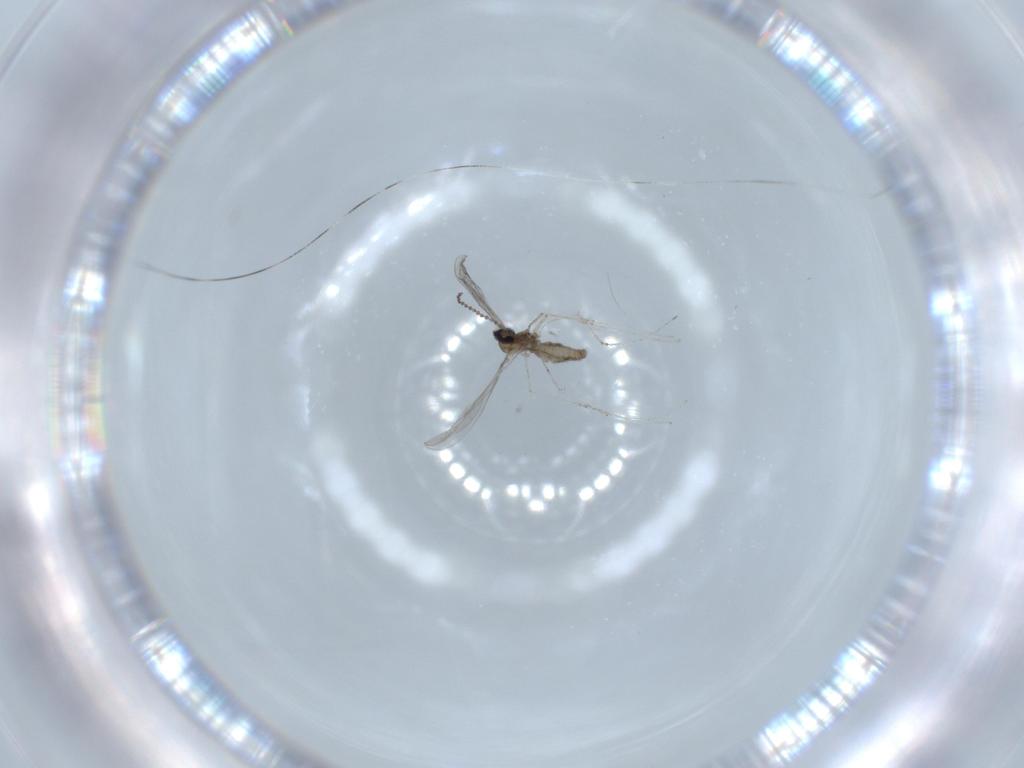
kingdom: Animalia
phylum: Arthropoda
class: Insecta
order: Diptera
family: Cecidomyiidae
